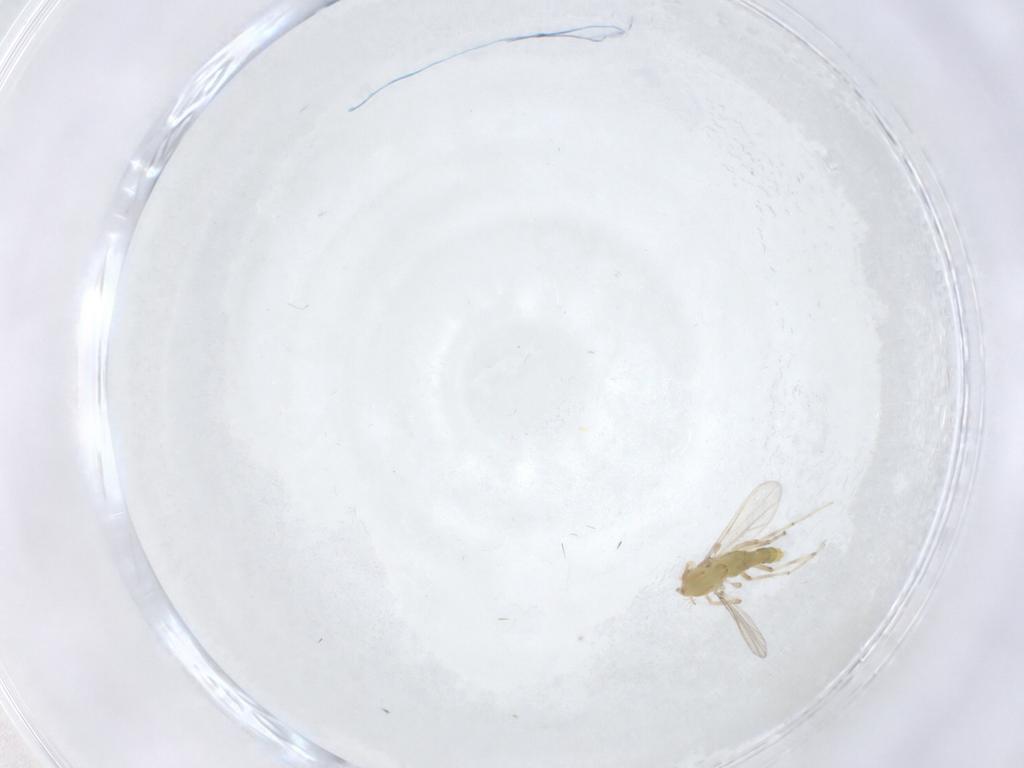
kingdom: Animalia
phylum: Arthropoda
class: Insecta
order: Diptera
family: Chironomidae
